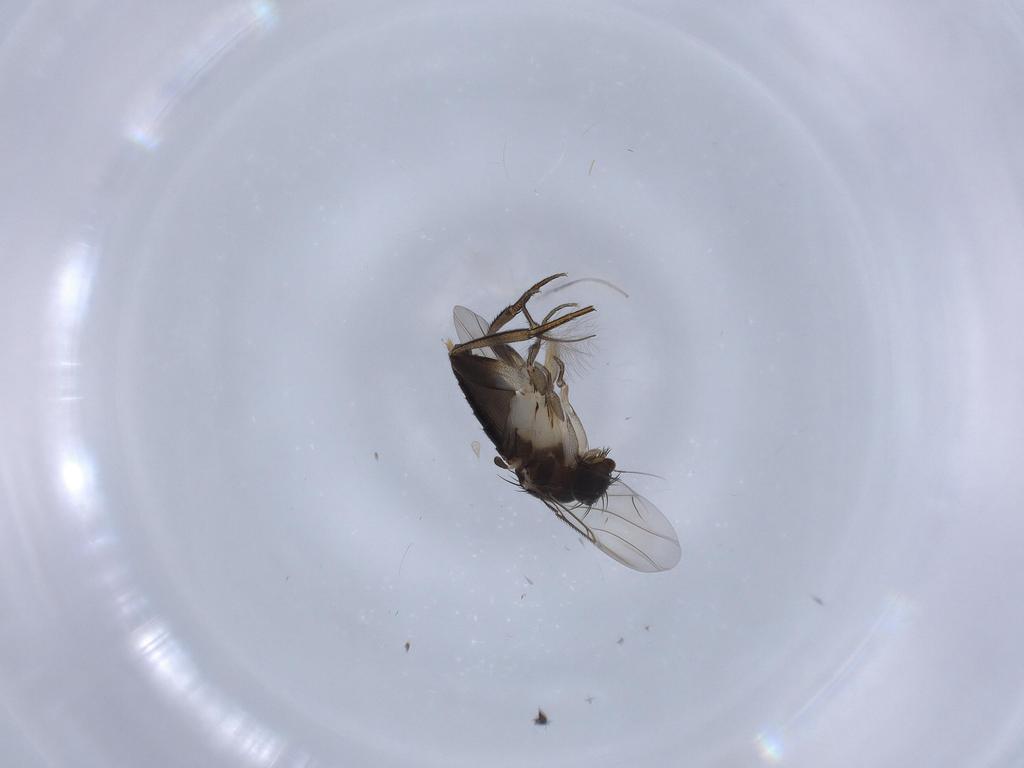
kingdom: Animalia
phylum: Arthropoda
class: Insecta
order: Diptera
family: Phoridae
